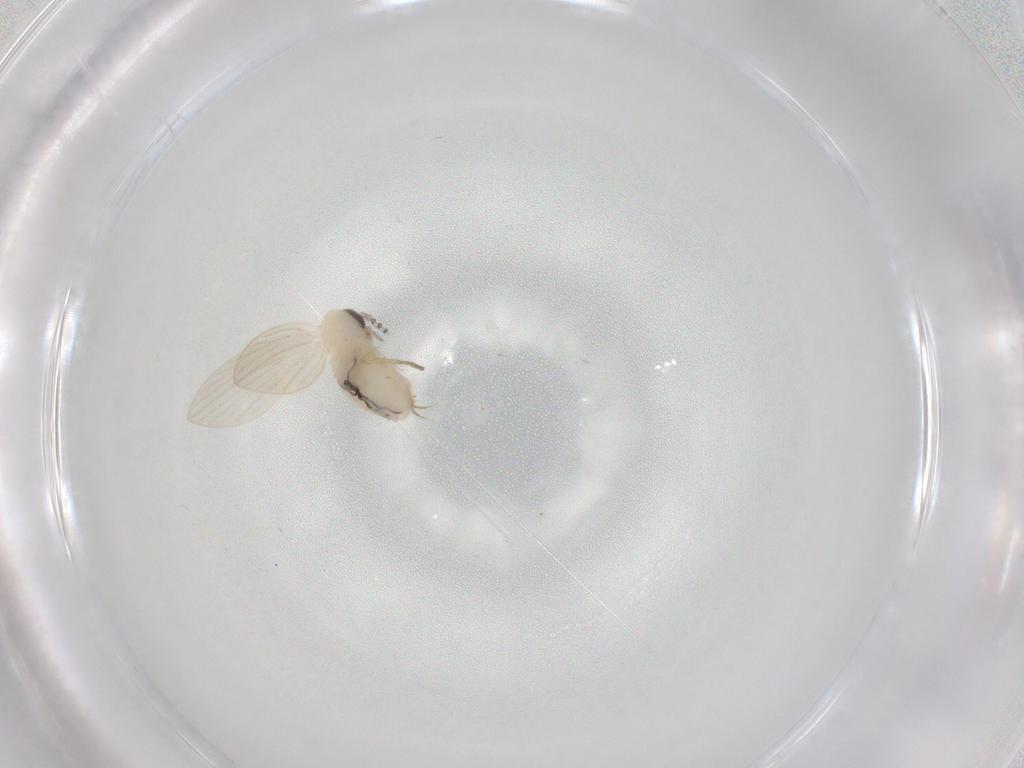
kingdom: Animalia
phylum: Arthropoda
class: Insecta
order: Diptera
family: Psychodidae
